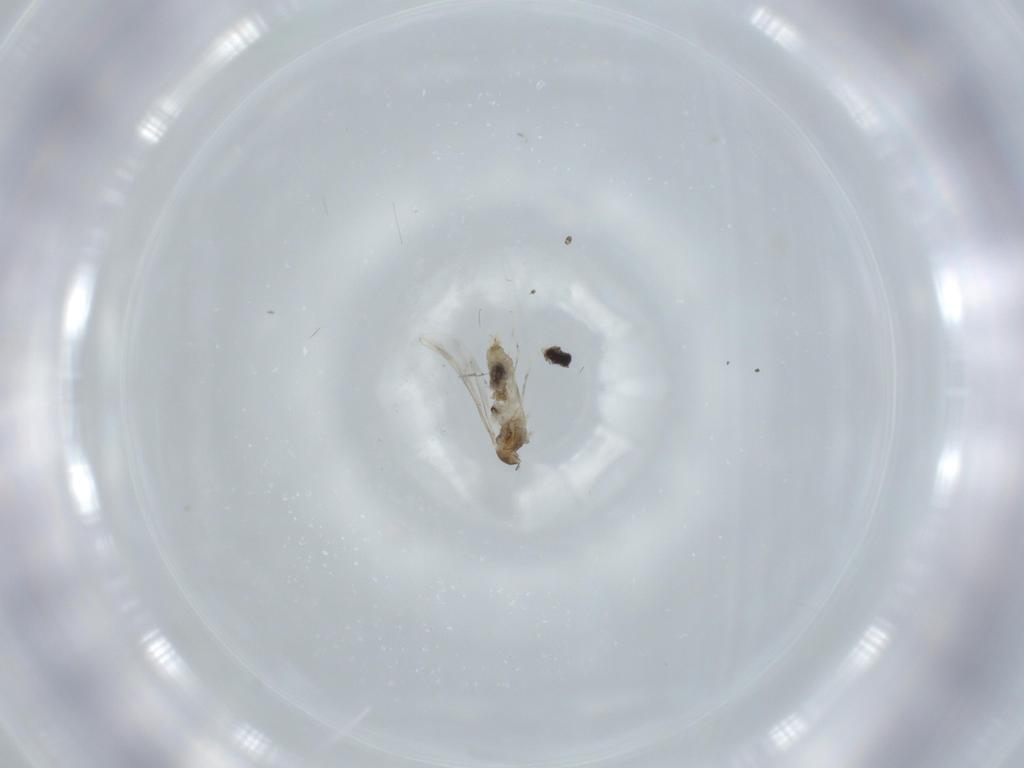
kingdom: Animalia
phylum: Arthropoda
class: Insecta
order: Diptera
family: Cecidomyiidae
